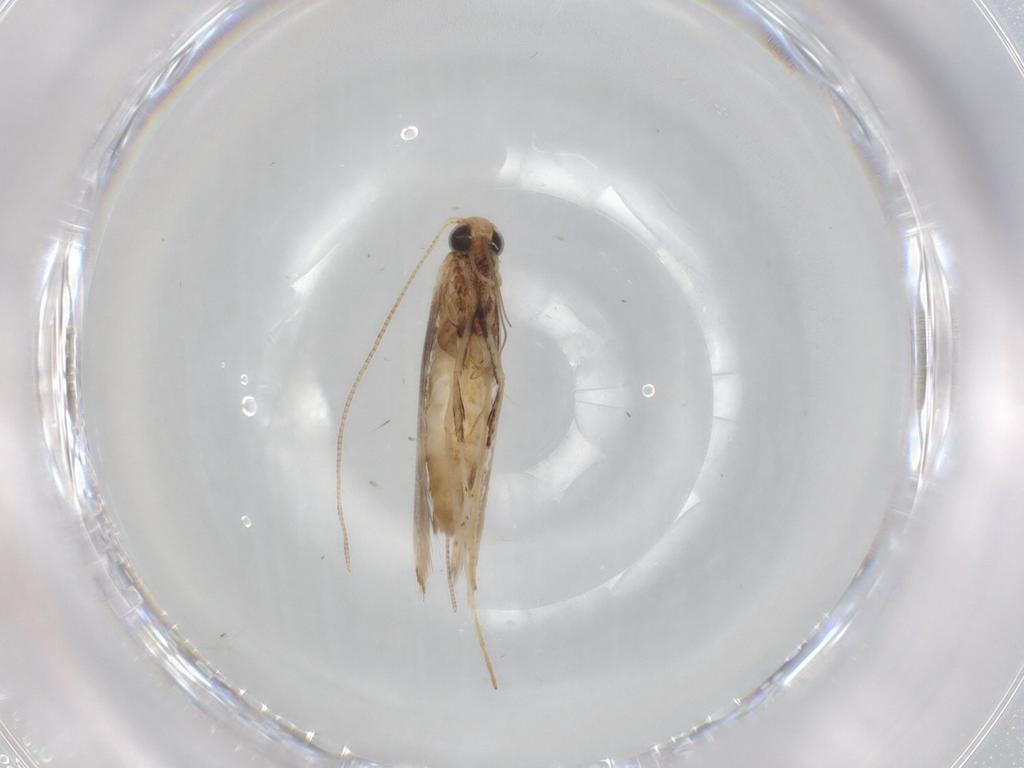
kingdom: Animalia
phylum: Arthropoda
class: Insecta
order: Lepidoptera
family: Gracillariidae
